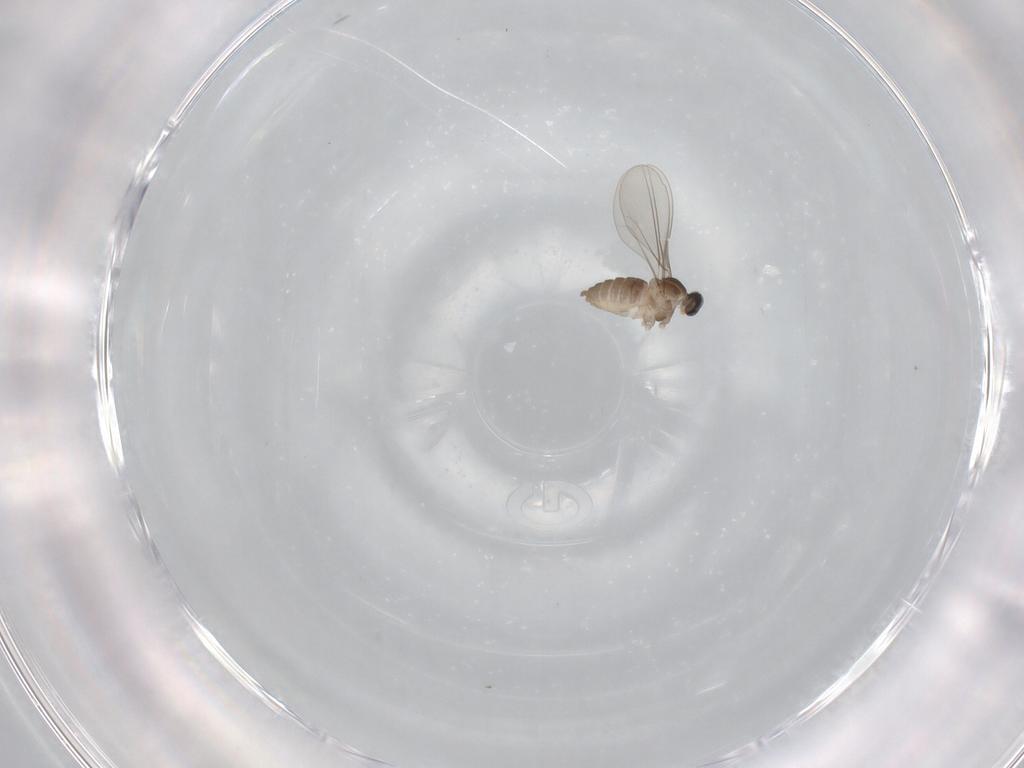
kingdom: Animalia
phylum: Arthropoda
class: Insecta
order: Diptera
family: Cecidomyiidae
